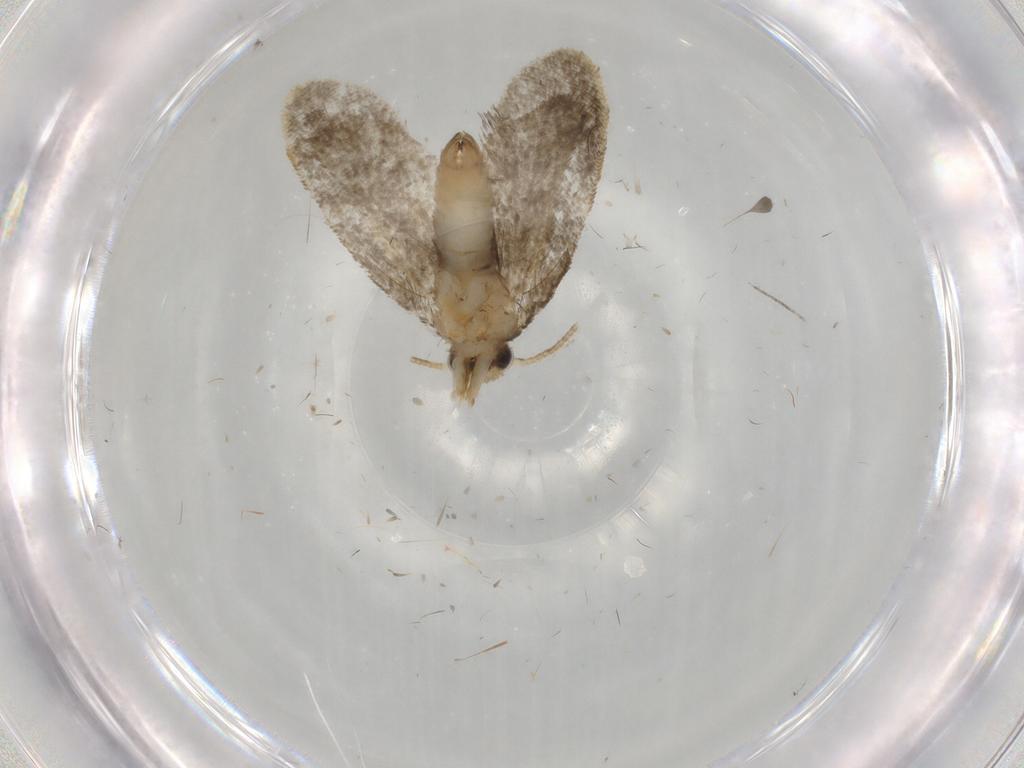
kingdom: Animalia
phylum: Arthropoda
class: Insecta
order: Lepidoptera
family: Psychidae
